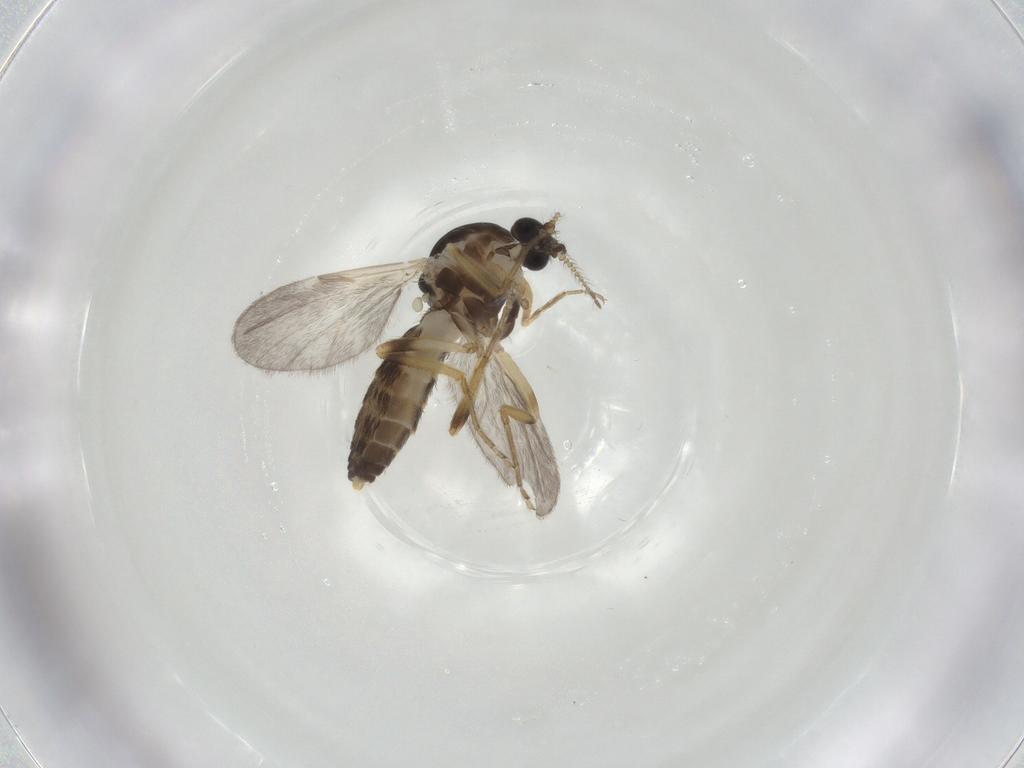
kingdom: Animalia
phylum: Arthropoda
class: Insecta
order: Diptera
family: Ceratopogonidae
